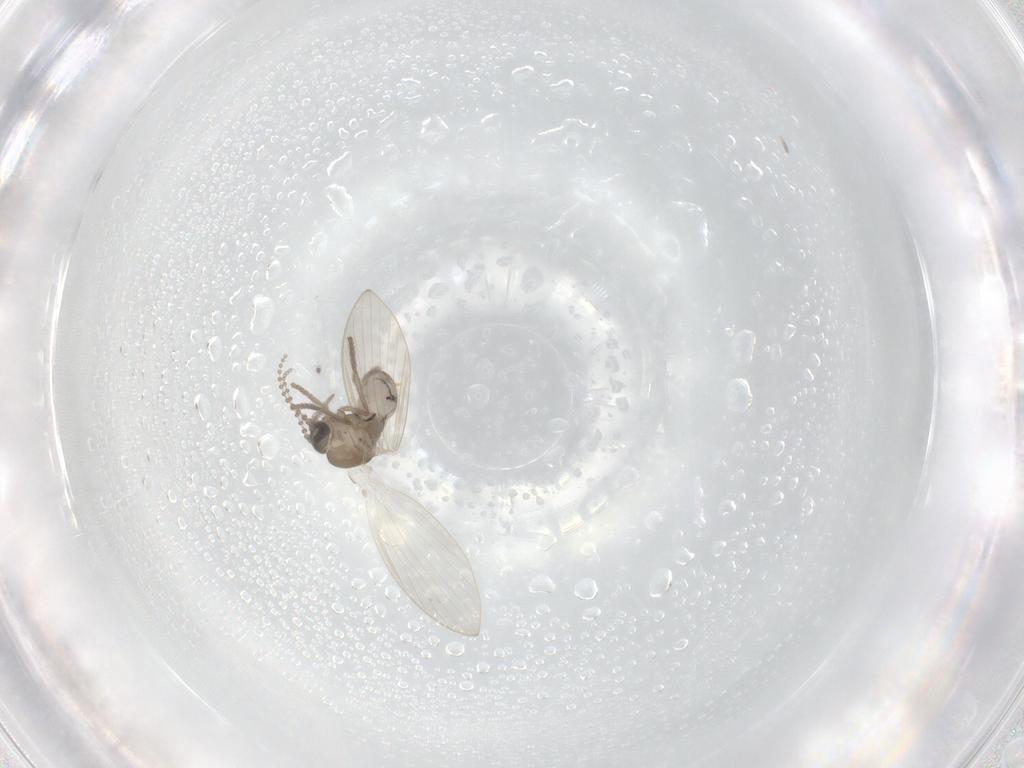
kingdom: Animalia
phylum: Arthropoda
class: Insecta
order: Diptera
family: Psychodidae
